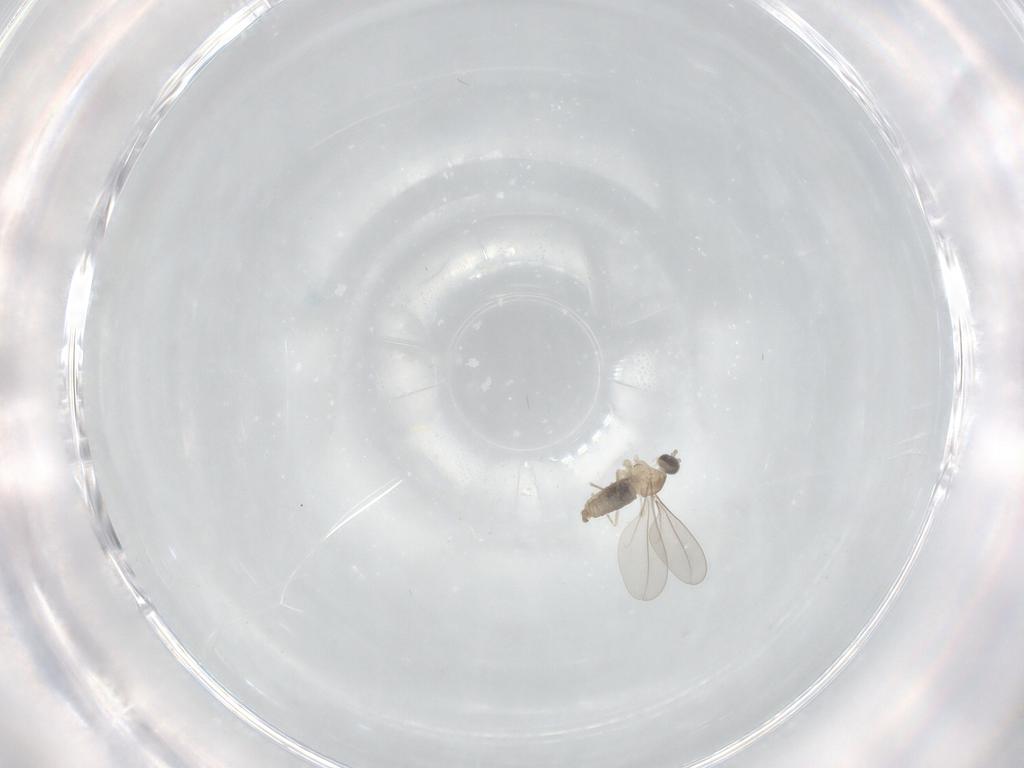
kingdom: Animalia
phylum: Arthropoda
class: Insecta
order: Diptera
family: Cecidomyiidae
